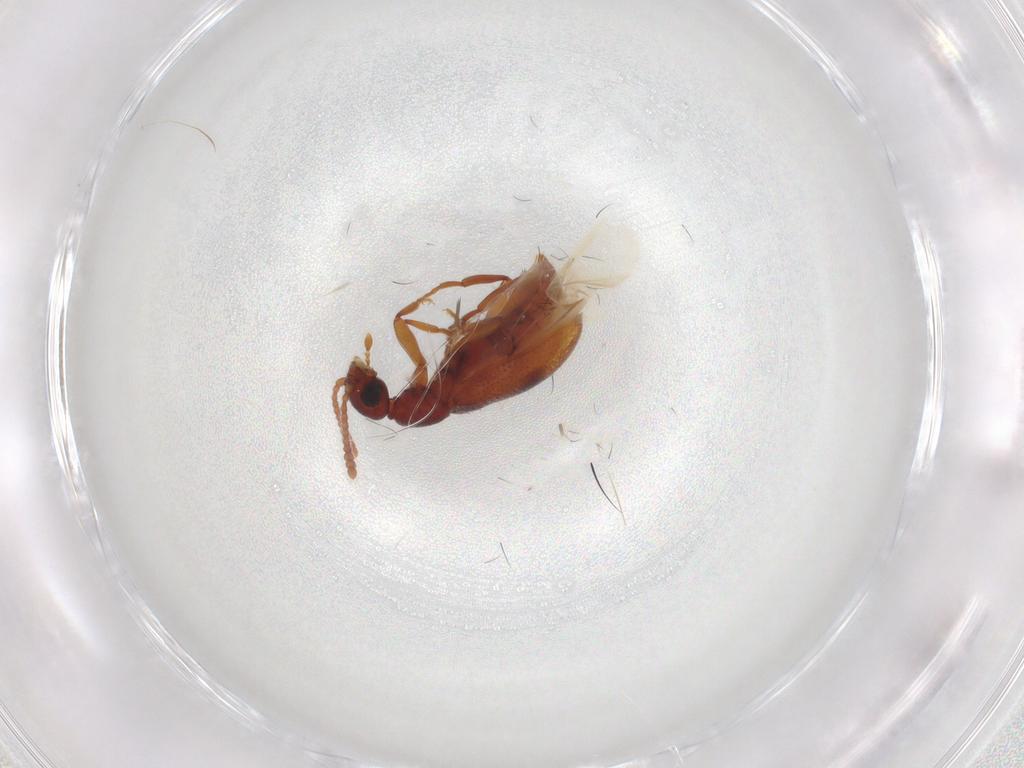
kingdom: Animalia
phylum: Arthropoda
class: Insecta
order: Coleoptera
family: Anthicidae
